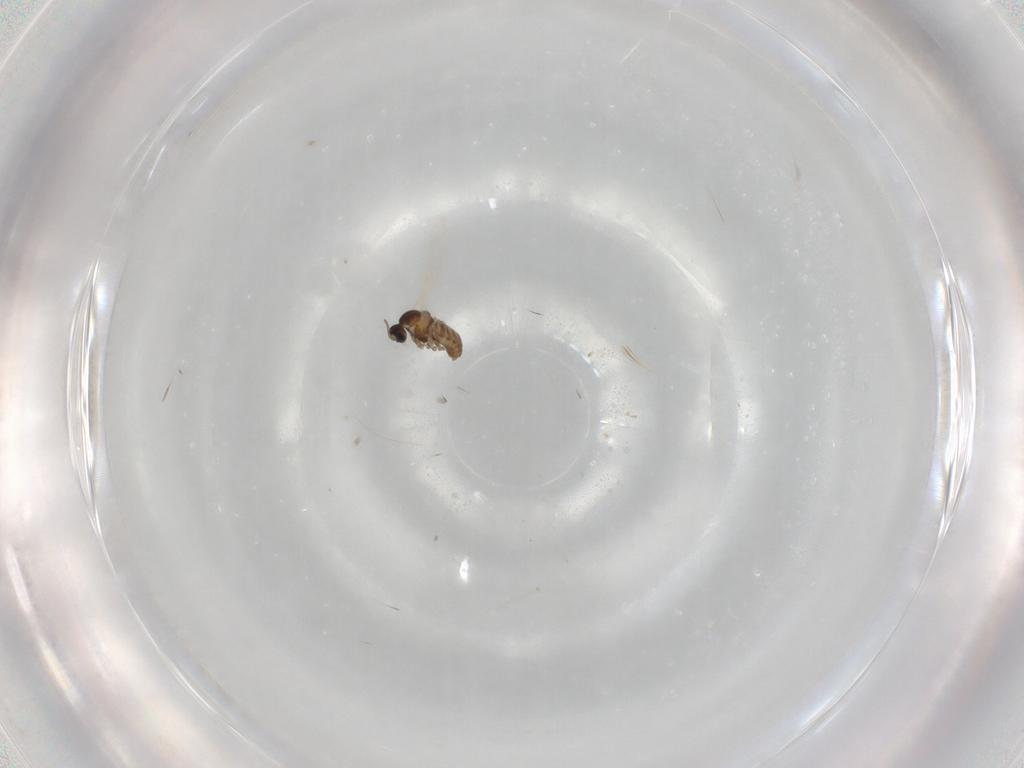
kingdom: Animalia
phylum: Arthropoda
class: Insecta
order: Diptera
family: Cecidomyiidae
